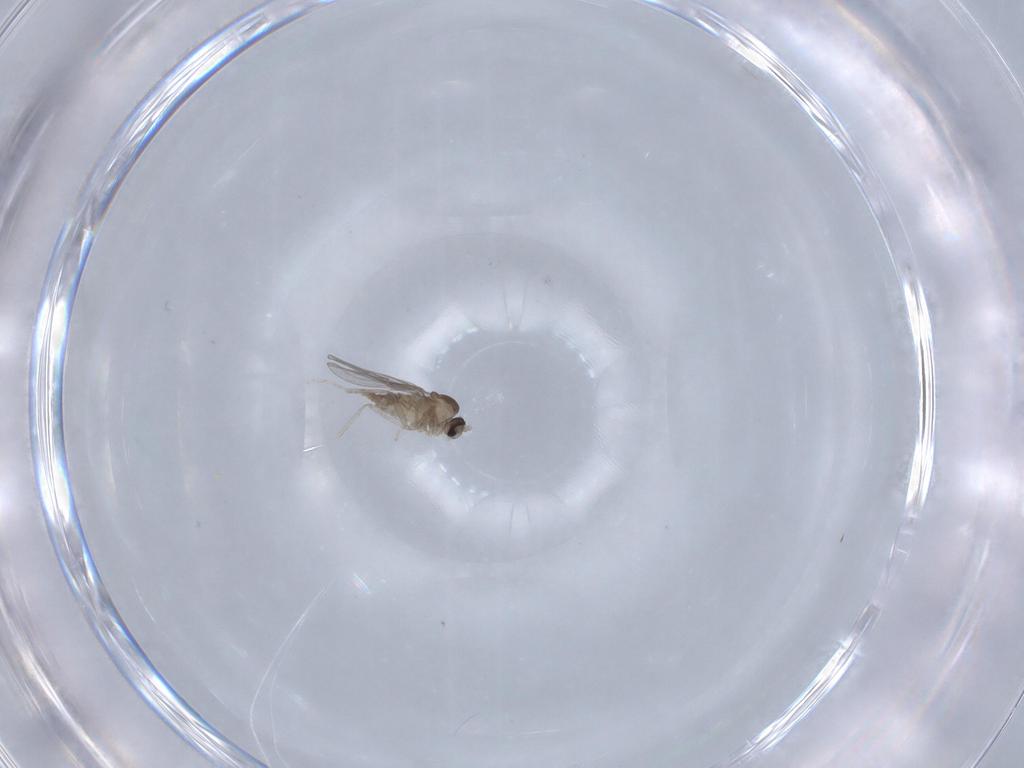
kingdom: Animalia
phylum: Arthropoda
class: Insecta
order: Diptera
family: Cecidomyiidae
